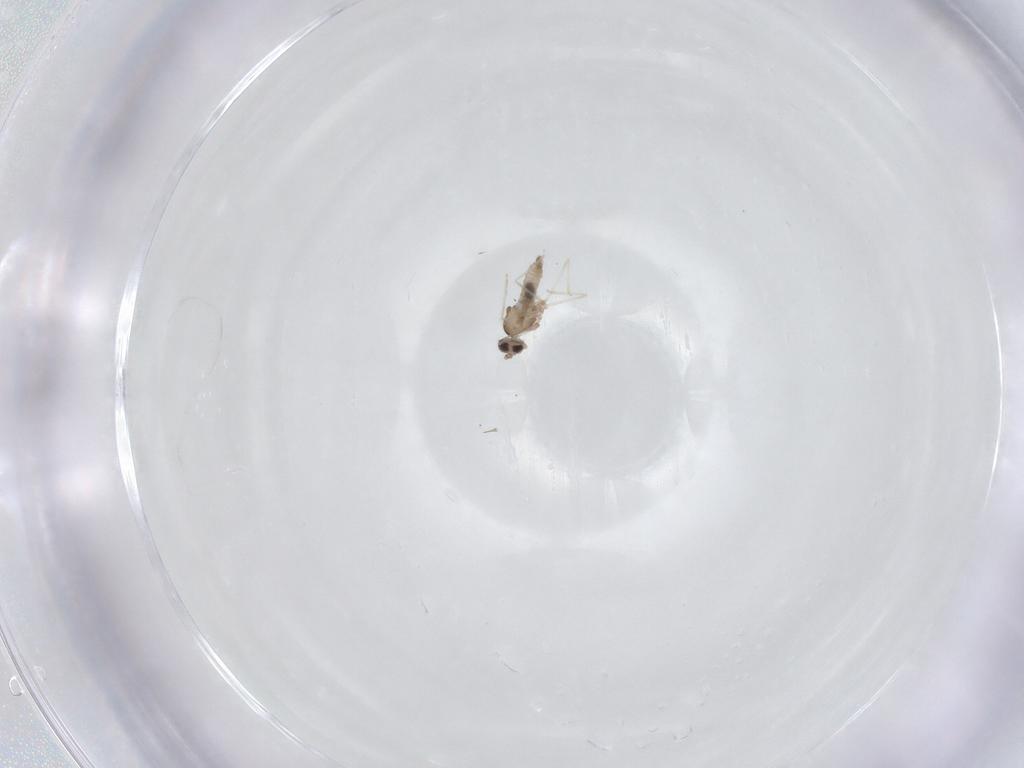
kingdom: Animalia
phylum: Arthropoda
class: Insecta
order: Diptera
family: Cecidomyiidae
